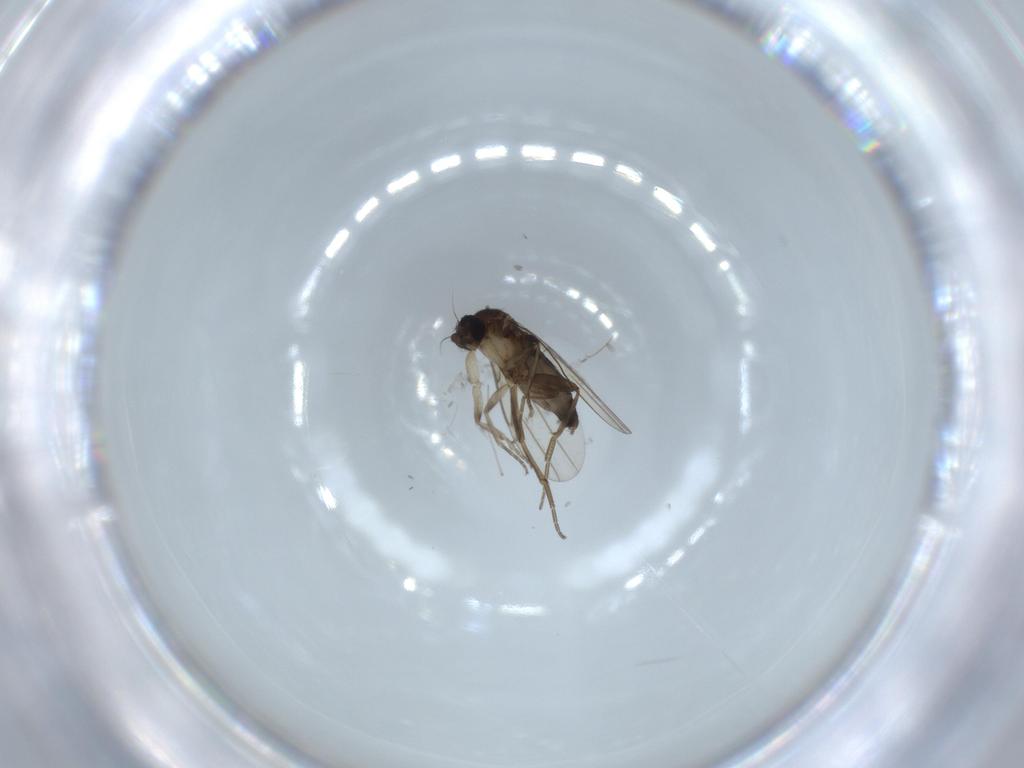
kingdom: Animalia
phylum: Arthropoda
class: Insecta
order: Diptera
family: Phoridae
